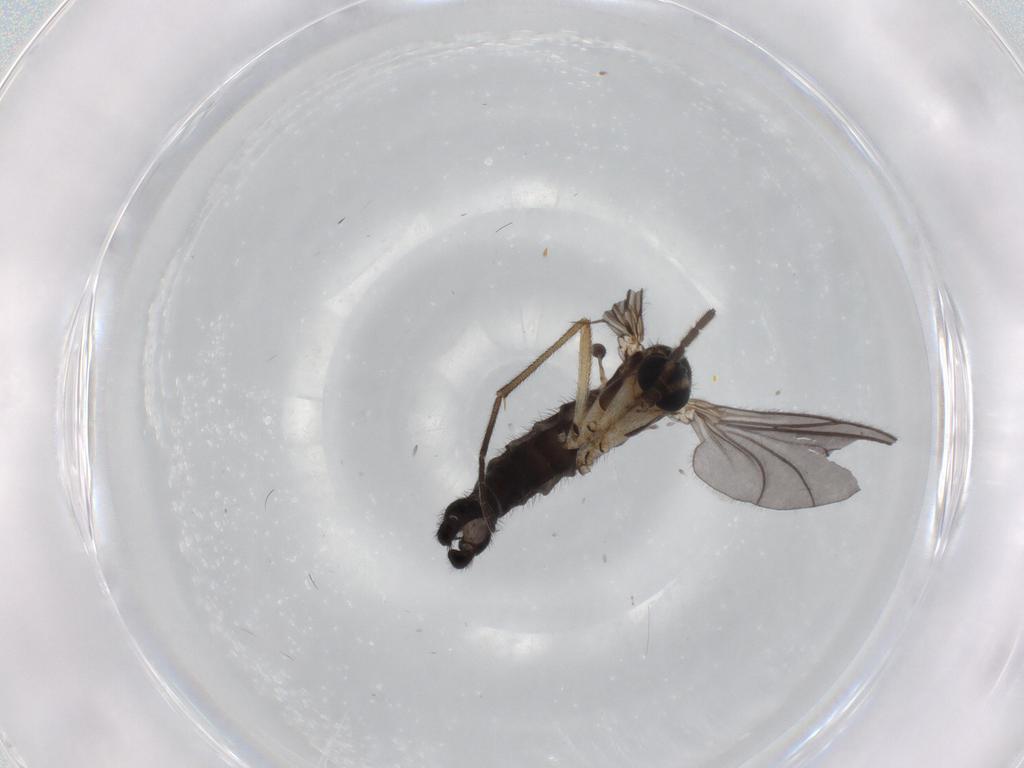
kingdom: Animalia
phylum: Arthropoda
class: Insecta
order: Diptera
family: Sciaridae
